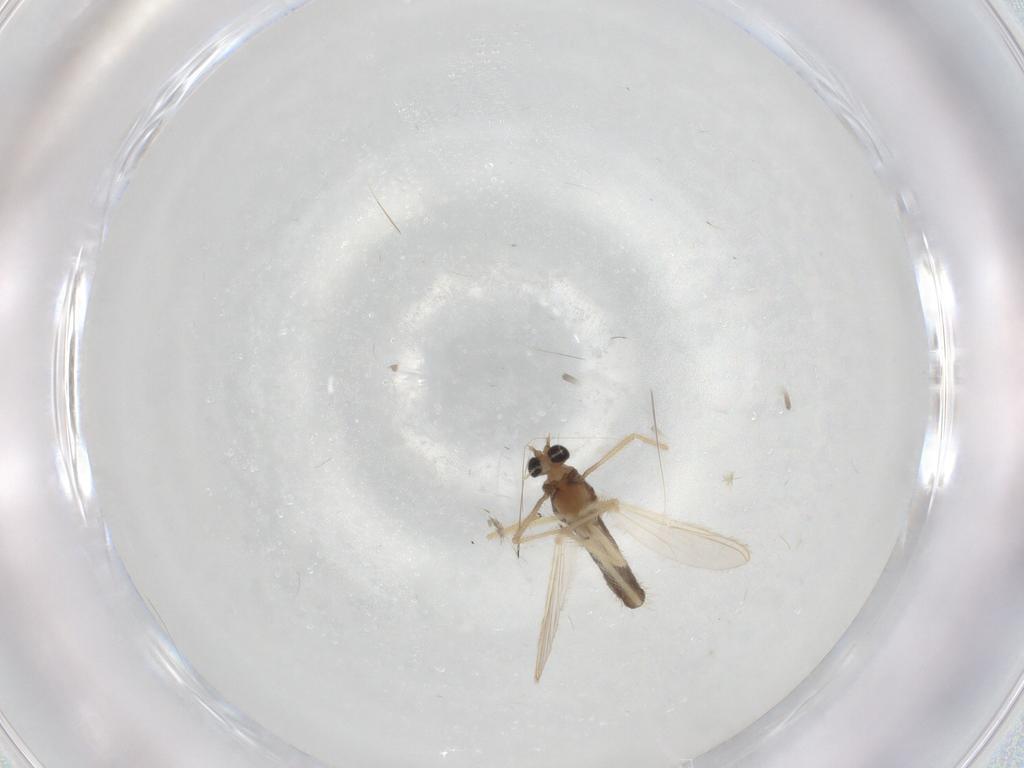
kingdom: Animalia
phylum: Arthropoda
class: Insecta
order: Diptera
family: Chironomidae
